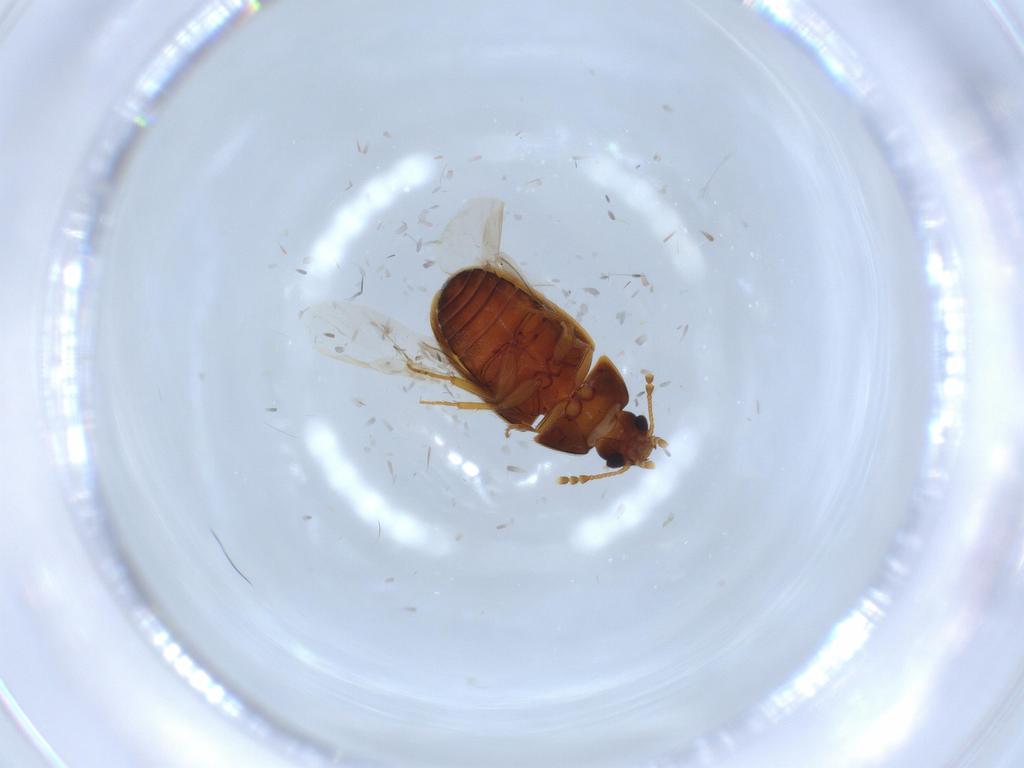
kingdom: Animalia
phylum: Arthropoda
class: Insecta
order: Coleoptera
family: Mycetophagidae
